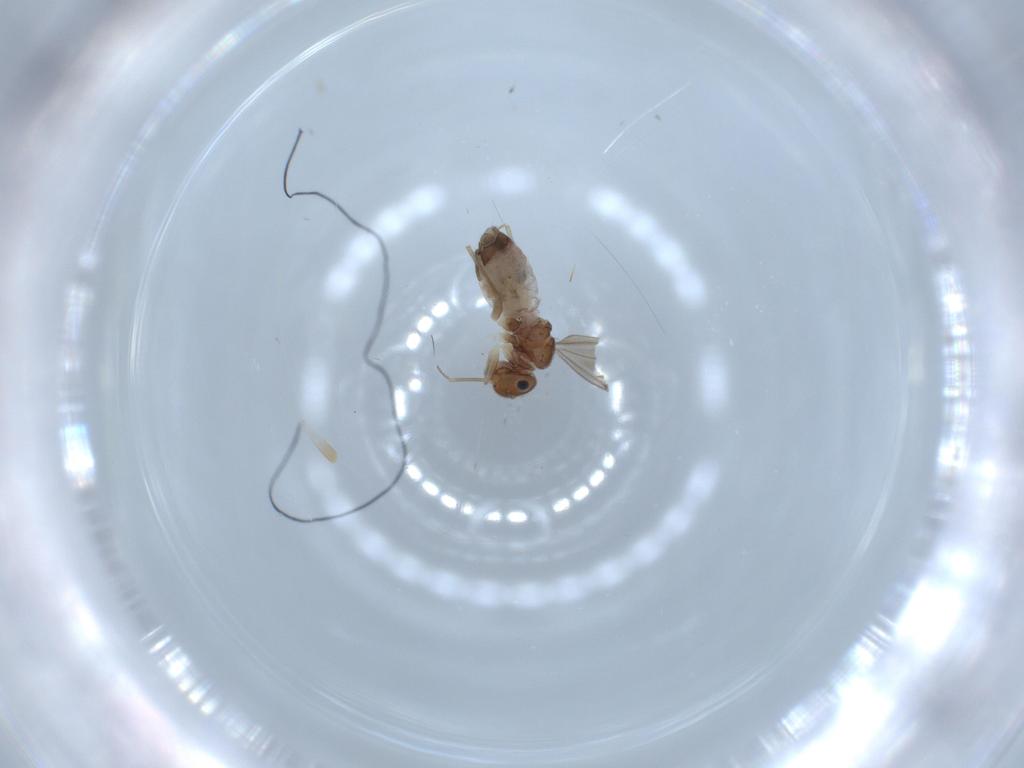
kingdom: Animalia
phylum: Arthropoda
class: Insecta
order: Psocodea
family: Ectopsocidae
